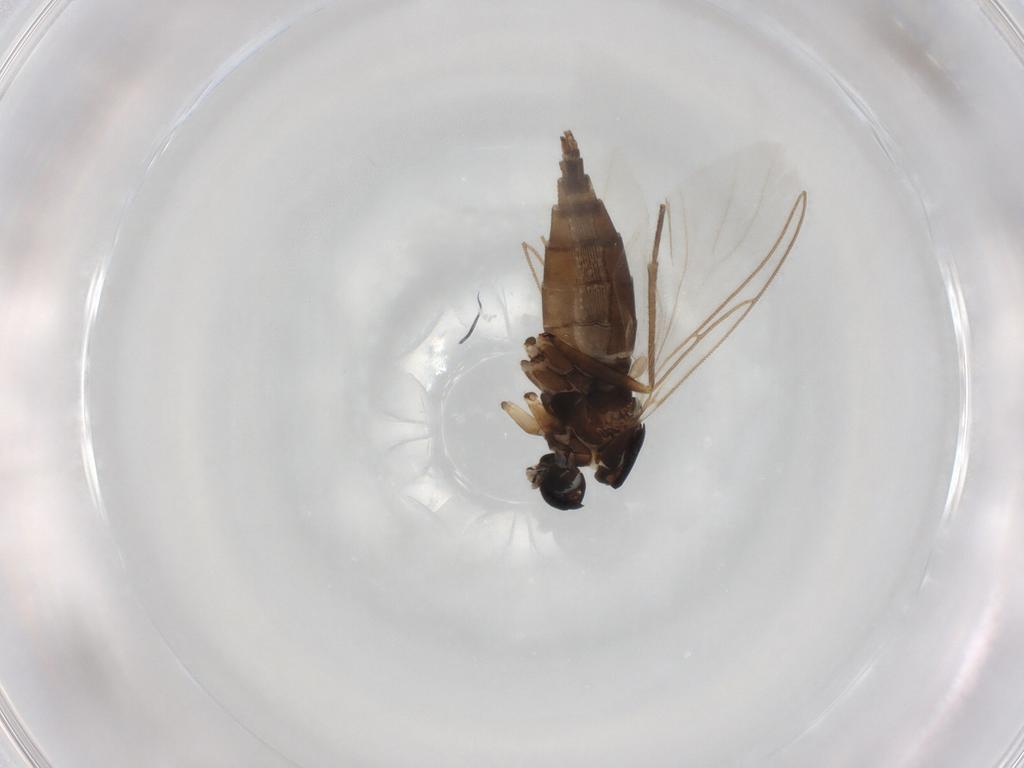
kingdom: Animalia
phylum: Arthropoda
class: Insecta
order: Diptera
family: Sciaridae
